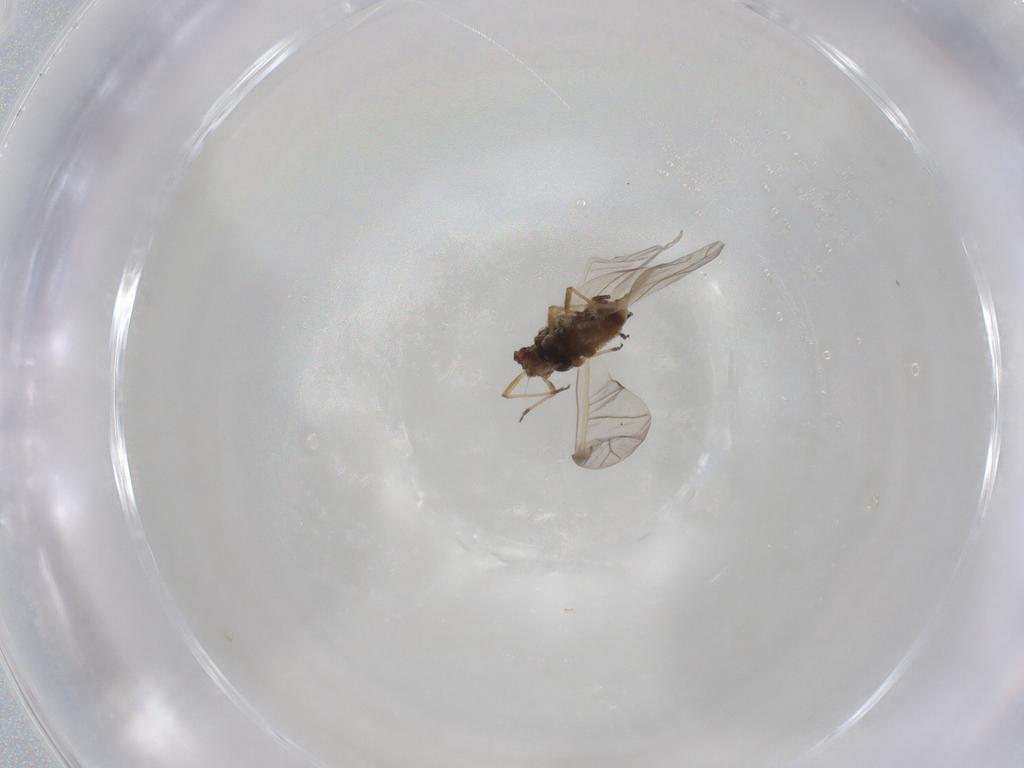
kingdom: Animalia
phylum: Arthropoda
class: Insecta
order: Hemiptera
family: Aphididae
